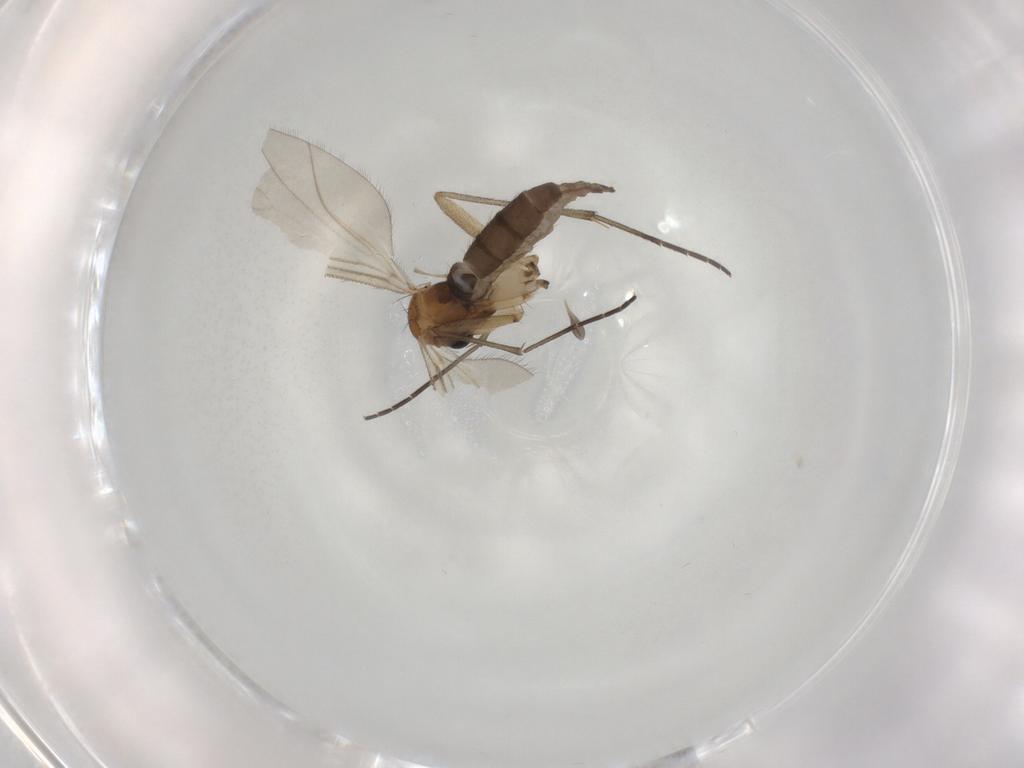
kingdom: Animalia
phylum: Arthropoda
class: Insecta
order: Diptera
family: Sciaridae
